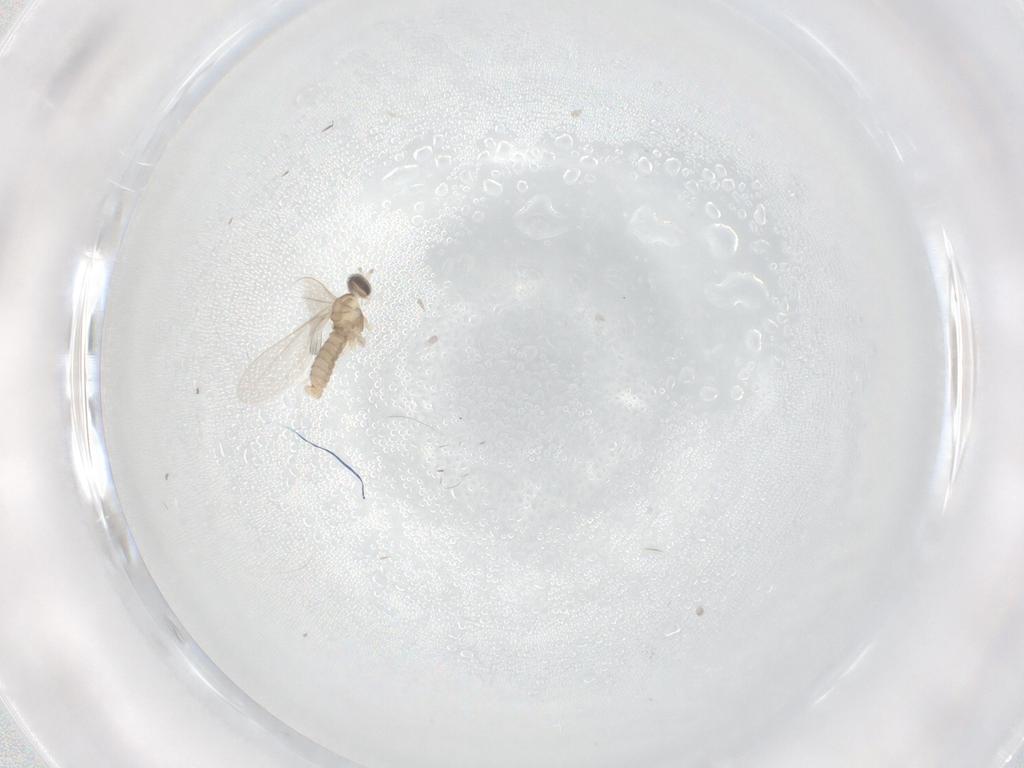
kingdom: Animalia
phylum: Arthropoda
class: Insecta
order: Diptera
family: Cecidomyiidae
